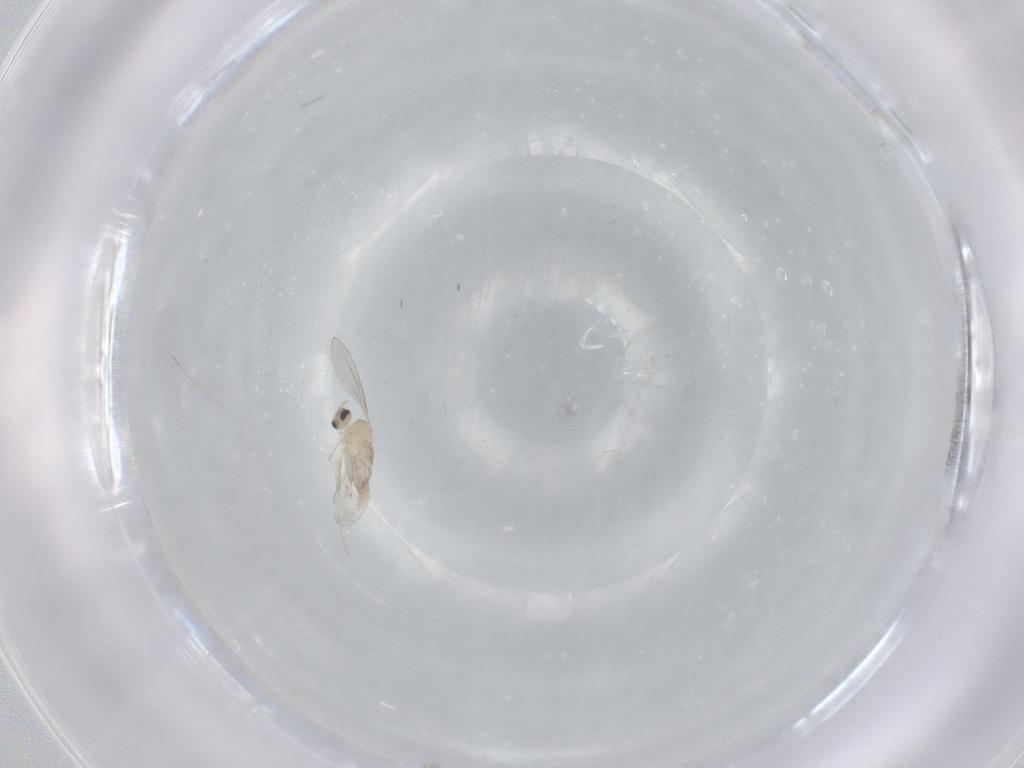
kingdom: Animalia
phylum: Arthropoda
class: Insecta
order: Diptera
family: Cecidomyiidae
